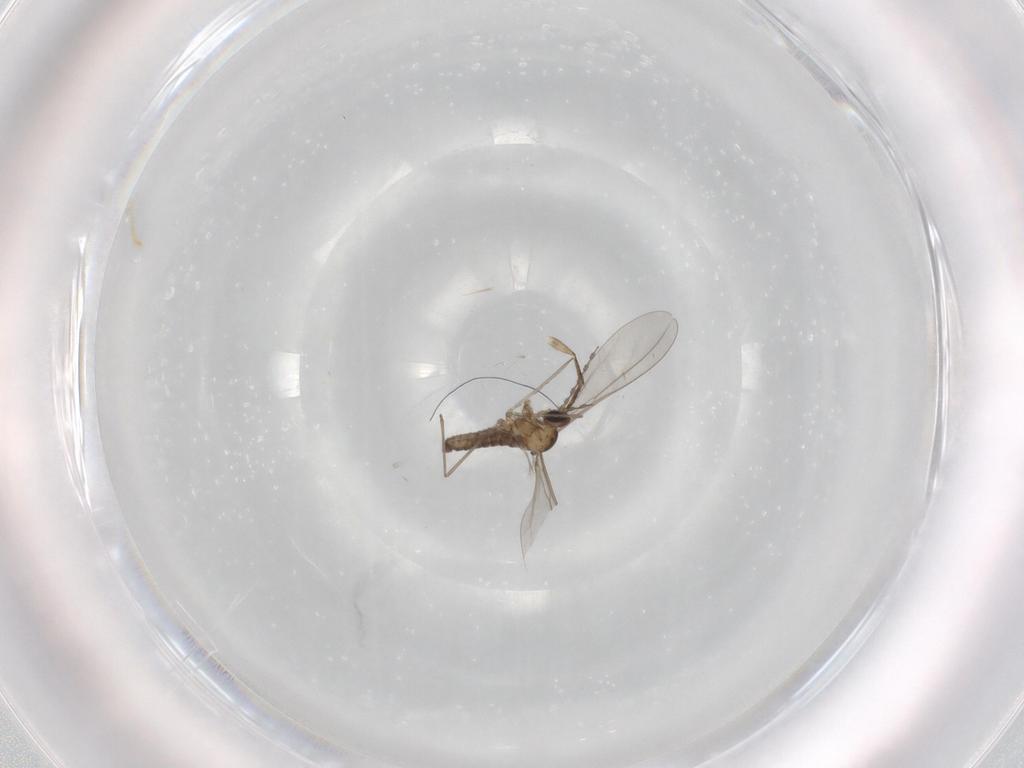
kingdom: Animalia
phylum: Arthropoda
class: Insecta
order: Diptera
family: Cecidomyiidae
